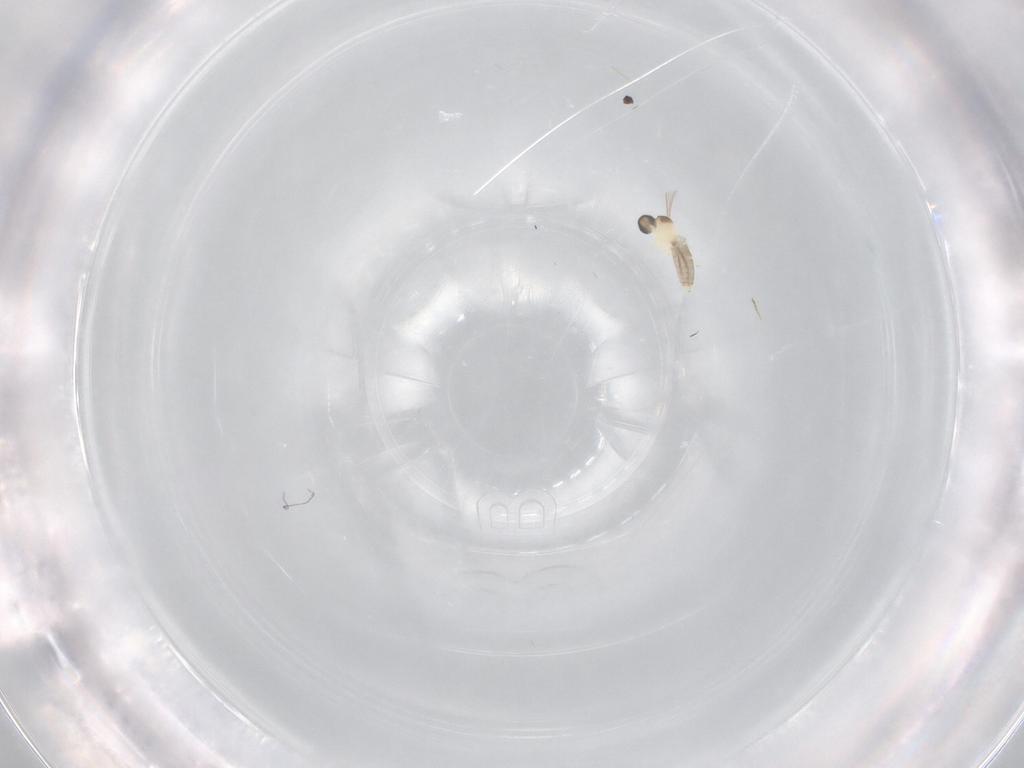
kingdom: Animalia
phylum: Arthropoda
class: Insecta
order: Diptera
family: Cecidomyiidae
